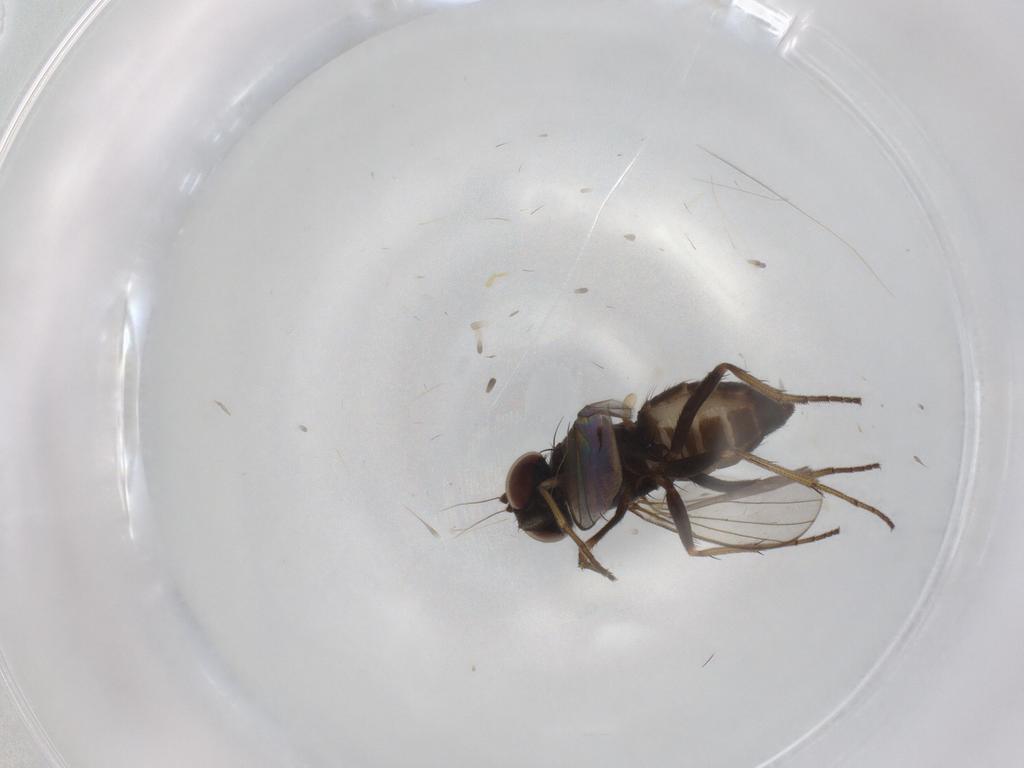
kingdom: Animalia
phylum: Arthropoda
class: Insecta
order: Diptera
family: Dolichopodidae
